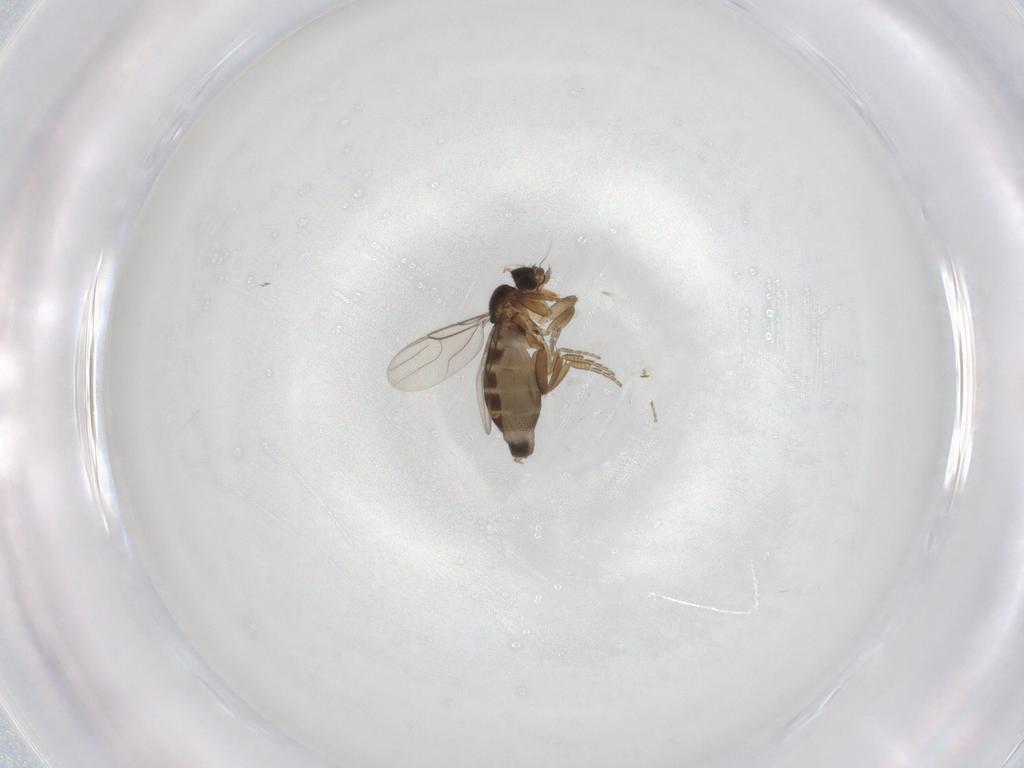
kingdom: Animalia
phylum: Arthropoda
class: Insecta
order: Diptera
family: Phoridae
